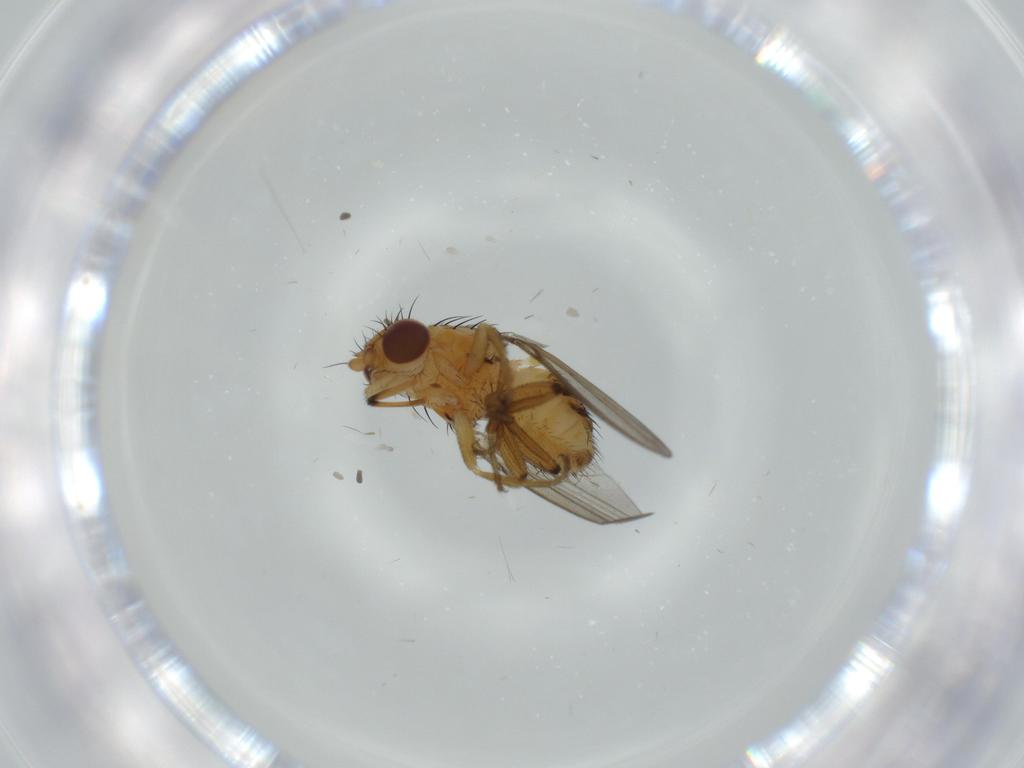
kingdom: Animalia
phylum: Arthropoda
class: Insecta
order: Diptera
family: Milichiidae
